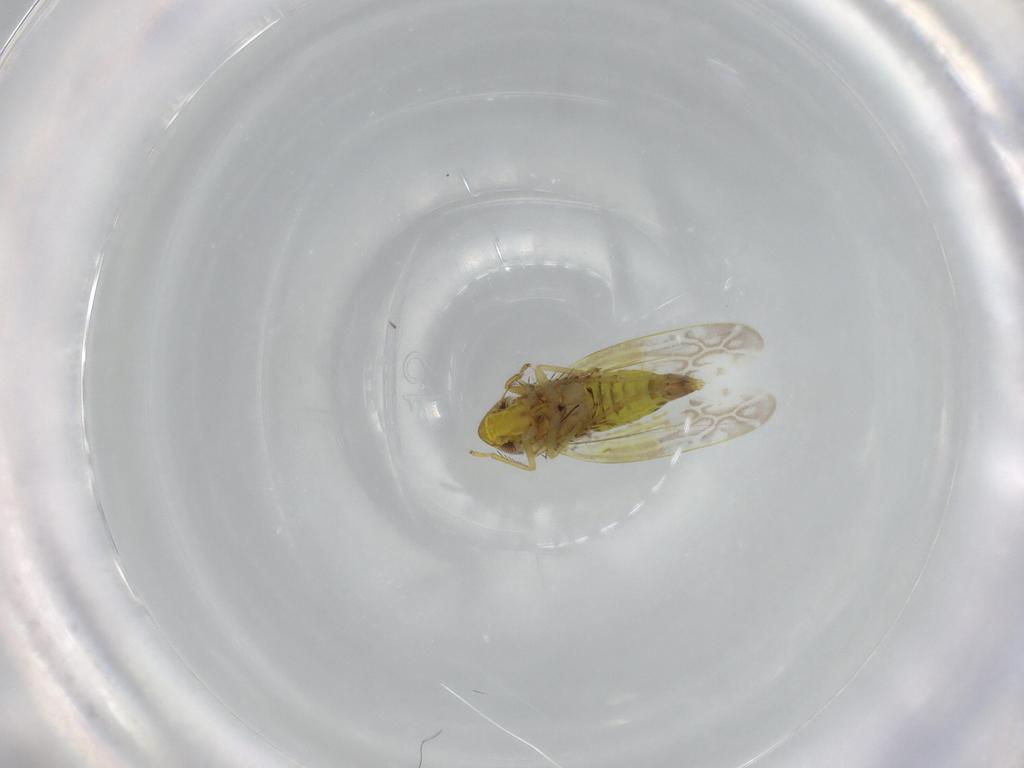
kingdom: Animalia
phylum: Arthropoda
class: Insecta
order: Hemiptera
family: Cicadellidae
